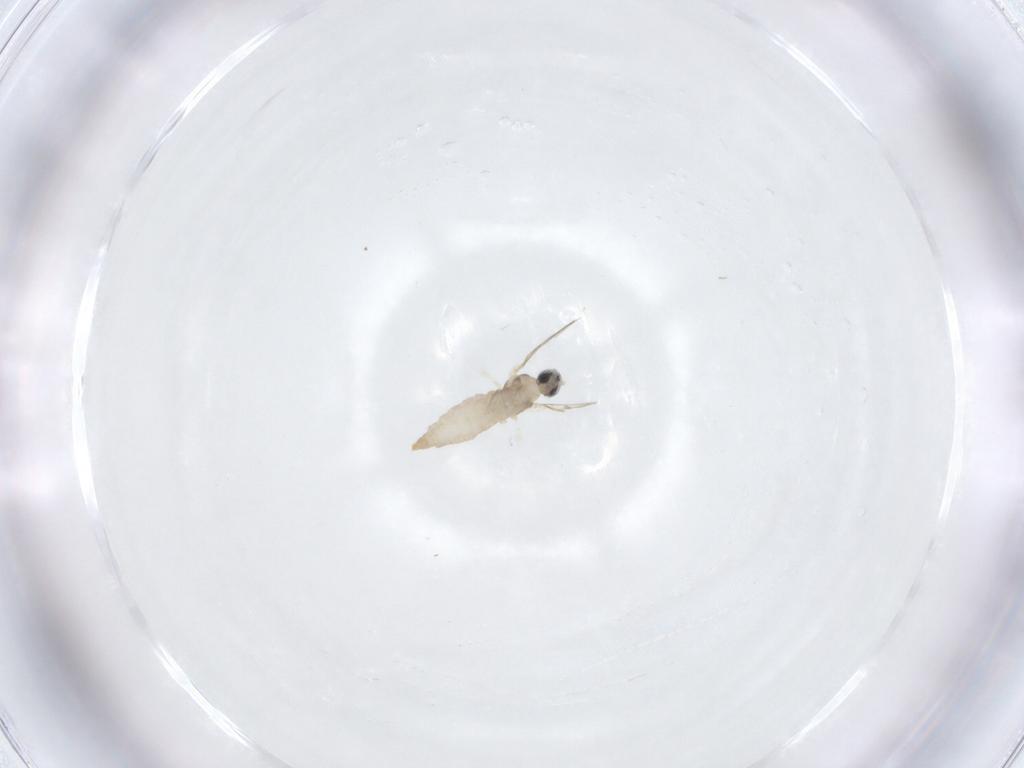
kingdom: Animalia
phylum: Arthropoda
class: Insecta
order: Diptera
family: Cecidomyiidae
